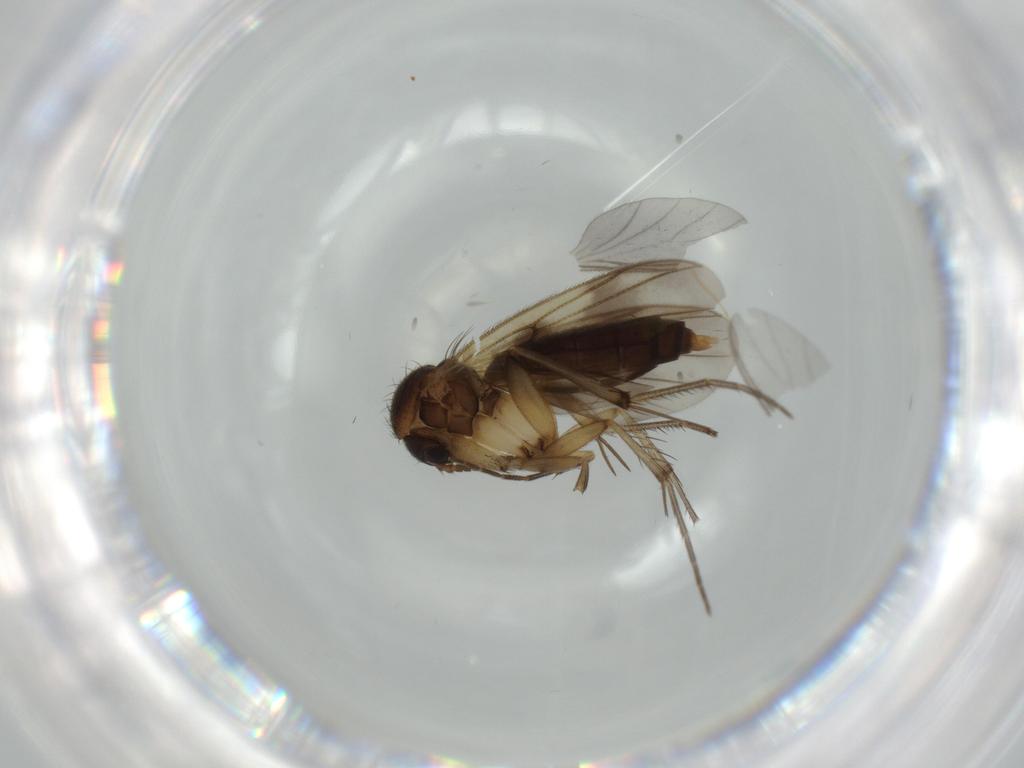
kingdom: Animalia
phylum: Arthropoda
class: Insecta
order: Diptera
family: Sciaridae
